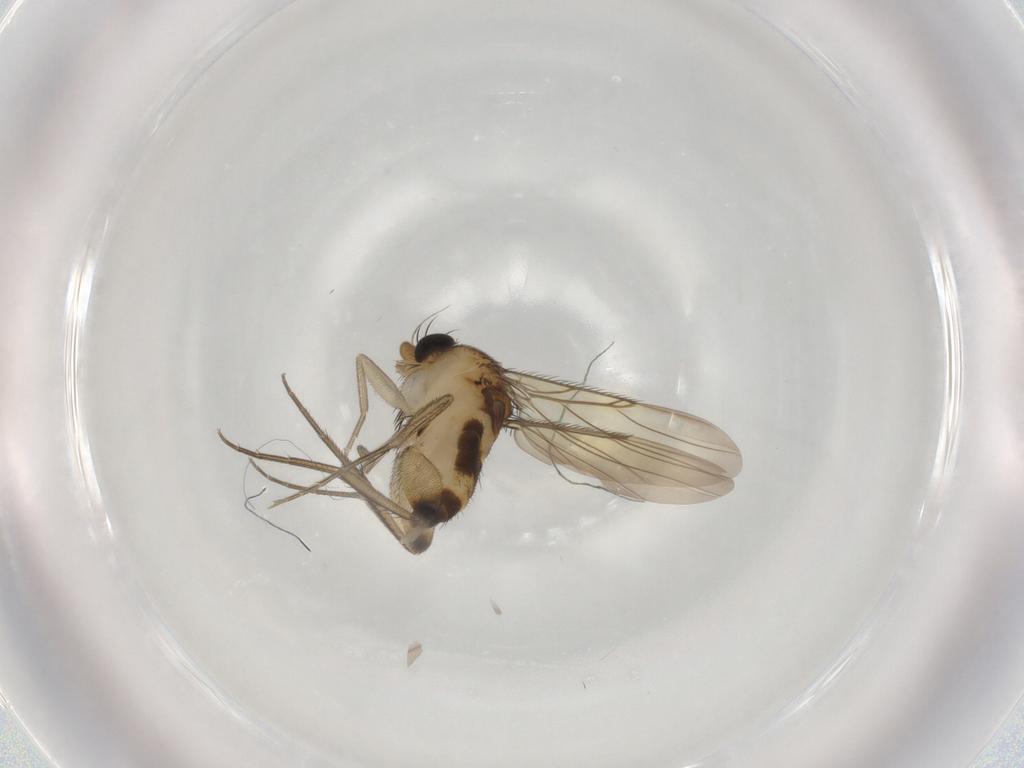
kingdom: Animalia
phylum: Arthropoda
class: Insecta
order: Diptera
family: Phoridae
